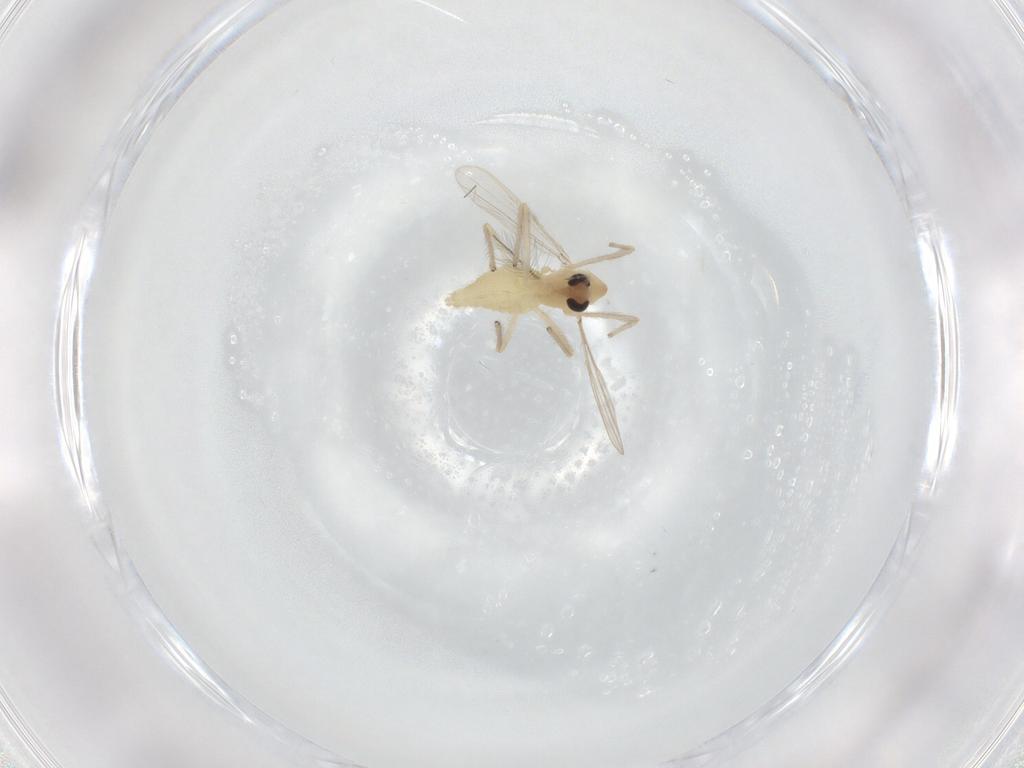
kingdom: Animalia
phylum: Arthropoda
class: Insecta
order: Diptera
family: Chironomidae
